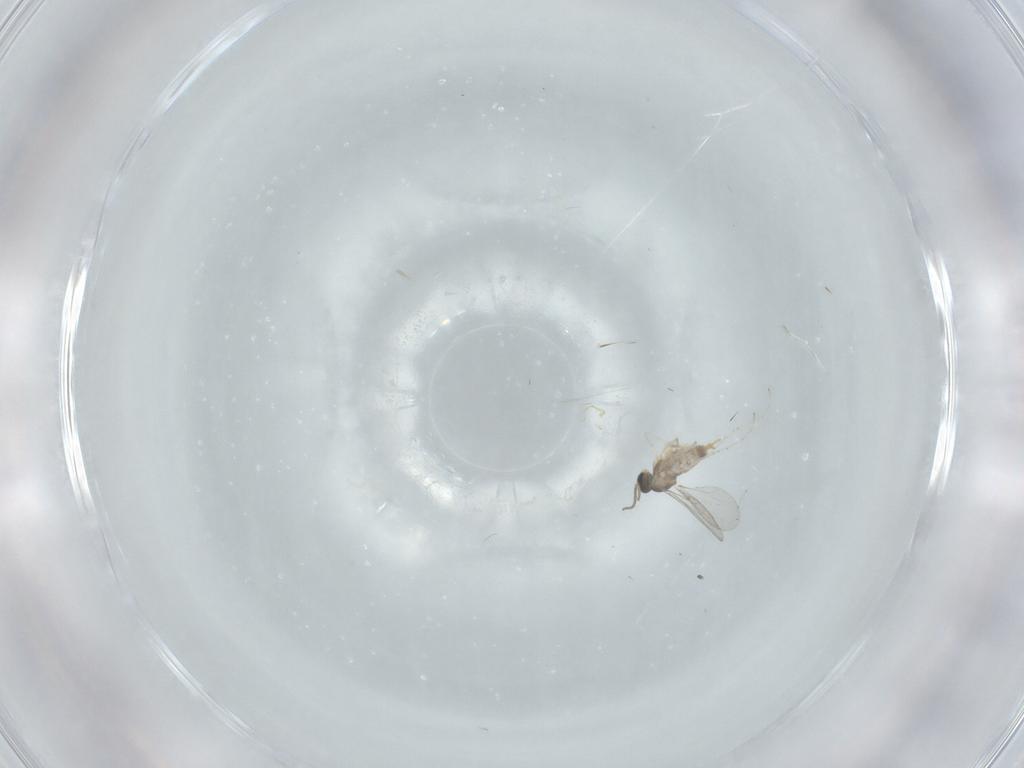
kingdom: Animalia
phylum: Arthropoda
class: Insecta
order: Diptera
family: Cecidomyiidae
